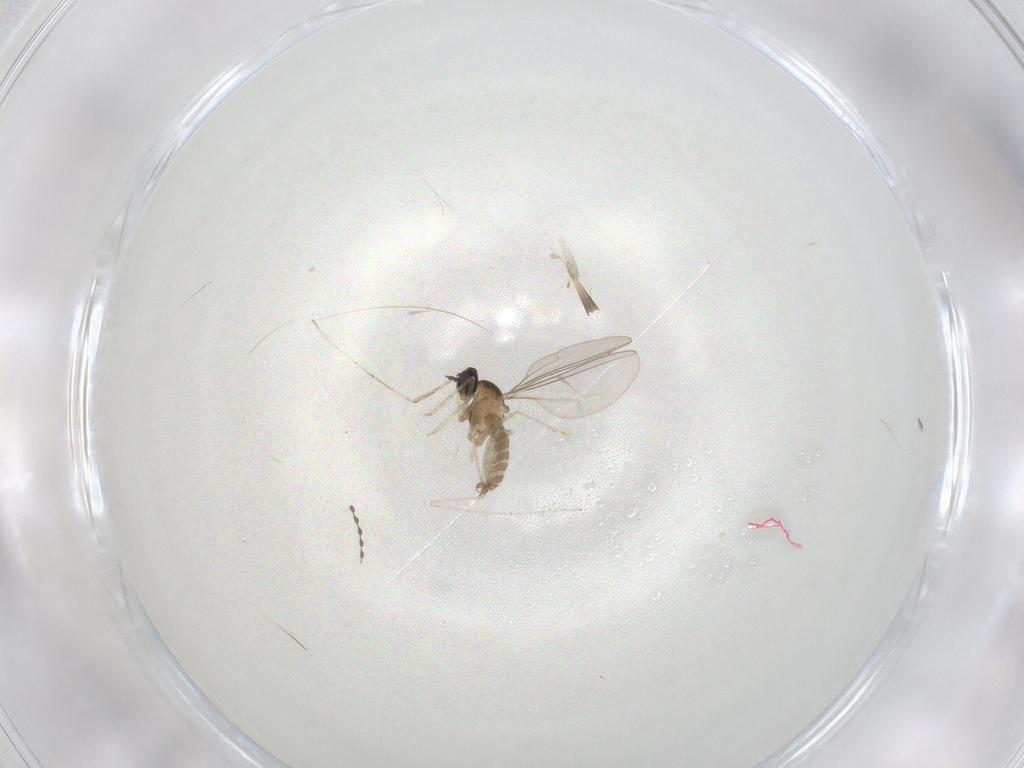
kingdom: Animalia
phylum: Arthropoda
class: Insecta
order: Diptera
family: Cecidomyiidae
